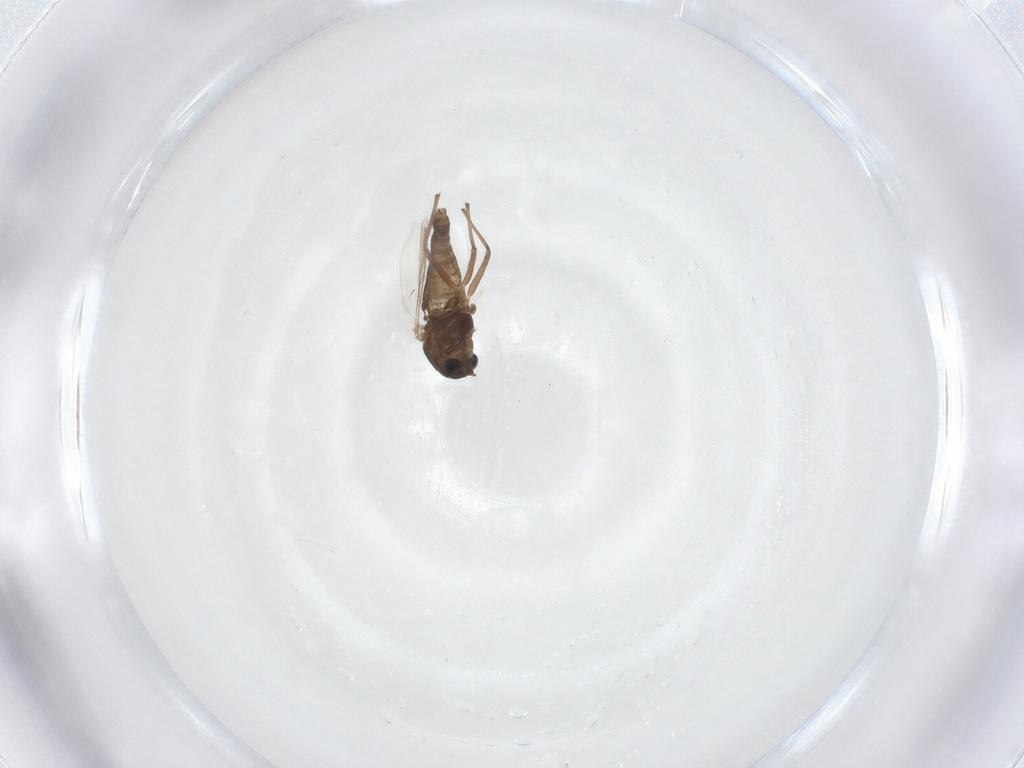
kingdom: Animalia
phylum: Arthropoda
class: Insecta
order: Diptera
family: Chironomidae
